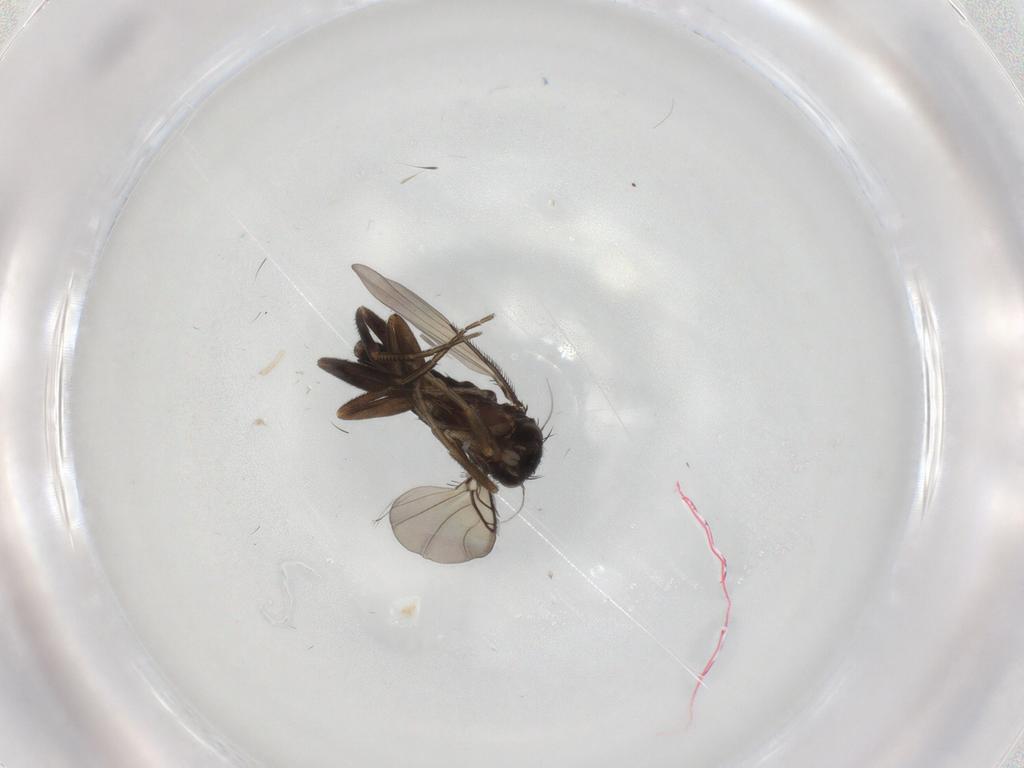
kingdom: Animalia
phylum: Arthropoda
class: Insecta
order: Diptera
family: Phoridae
